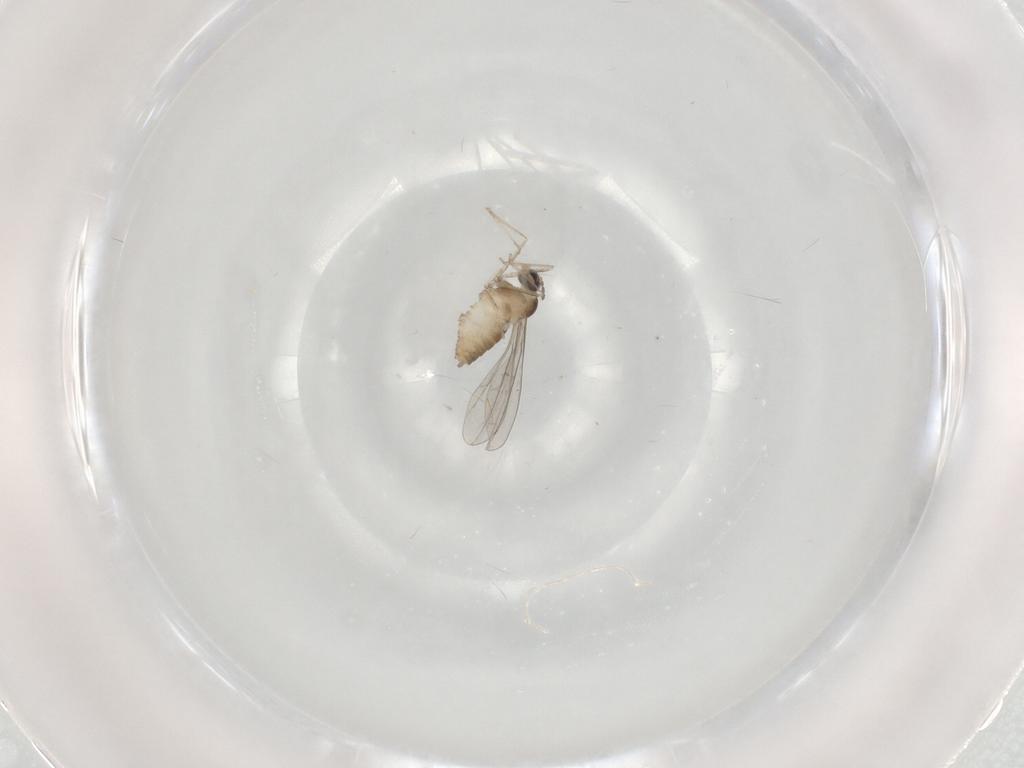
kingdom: Animalia
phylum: Arthropoda
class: Insecta
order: Diptera
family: Cecidomyiidae
